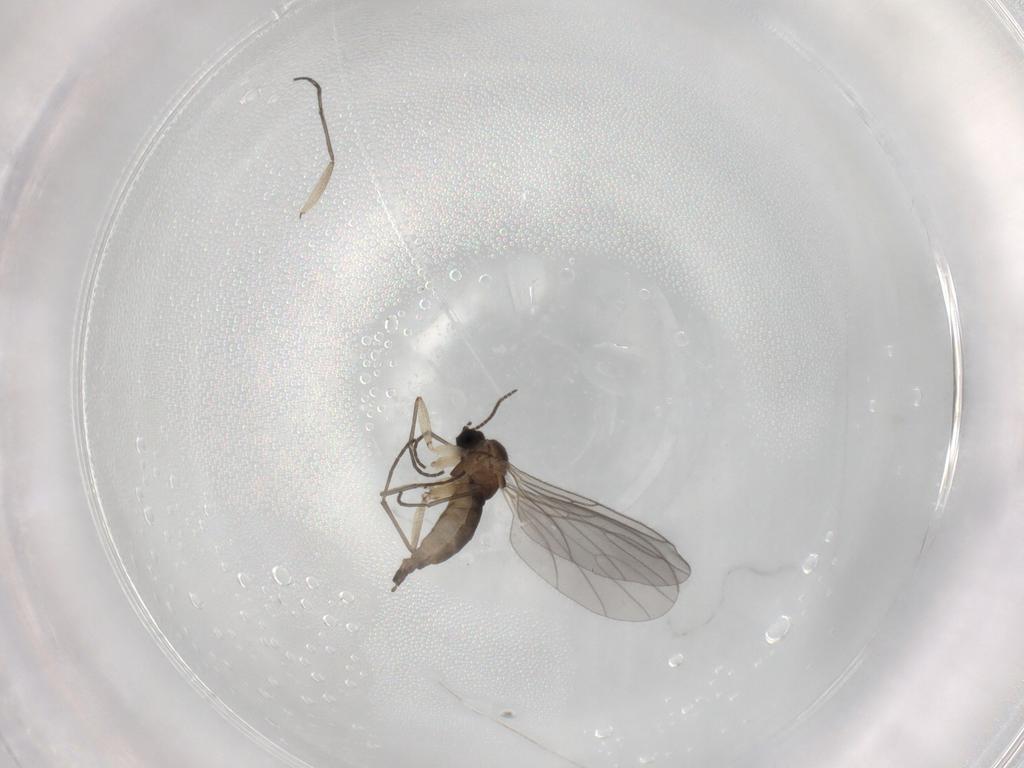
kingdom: Animalia
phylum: Arthropoda
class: Insecta
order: Diptera
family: Sciaridae
